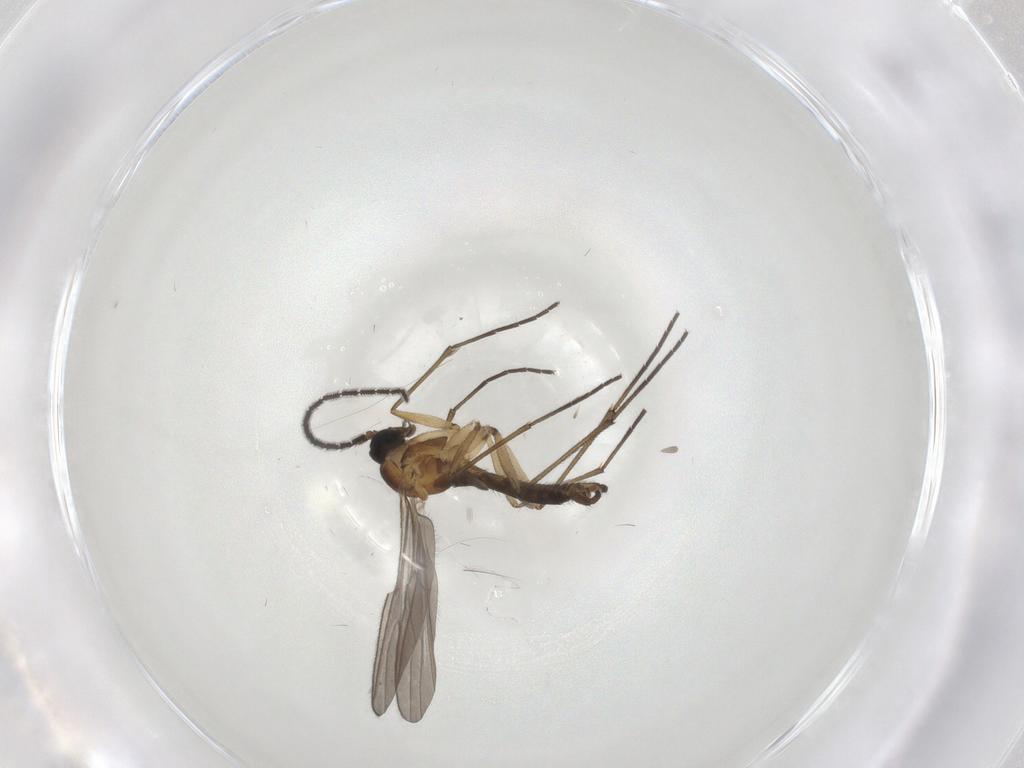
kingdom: Animalia
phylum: Arthropoda
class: Insecta
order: Diptera
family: Sciaridae
